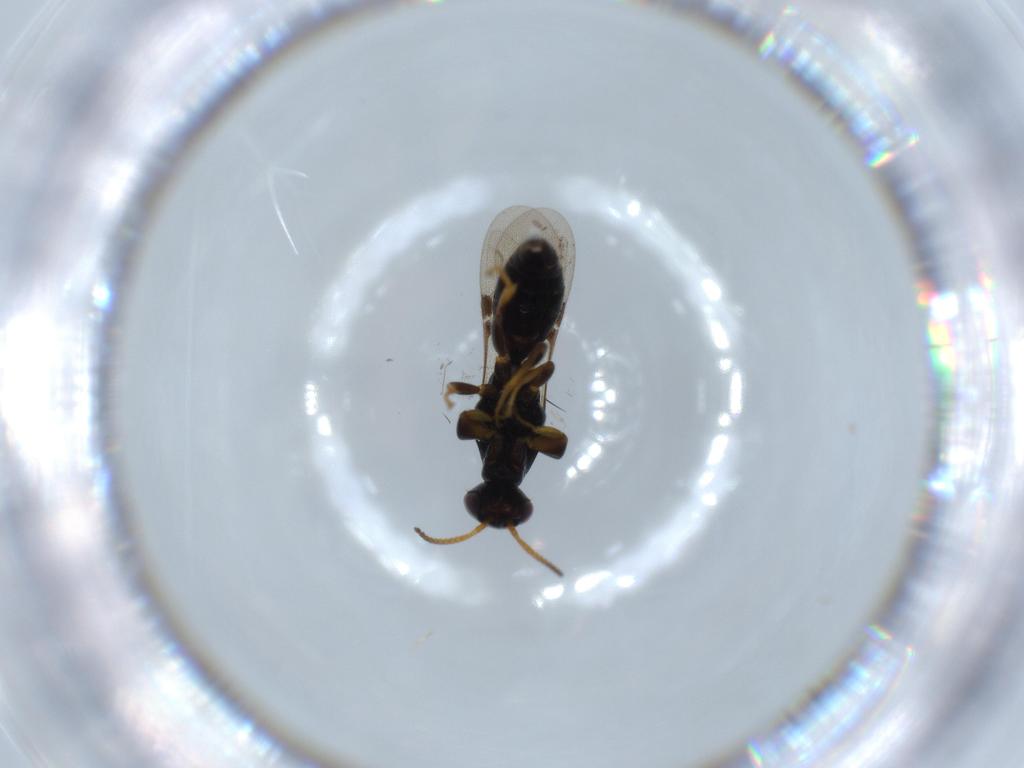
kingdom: Animalia
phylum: Arthropoda
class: Insecta
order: Hymenoptera
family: Bethylidae
